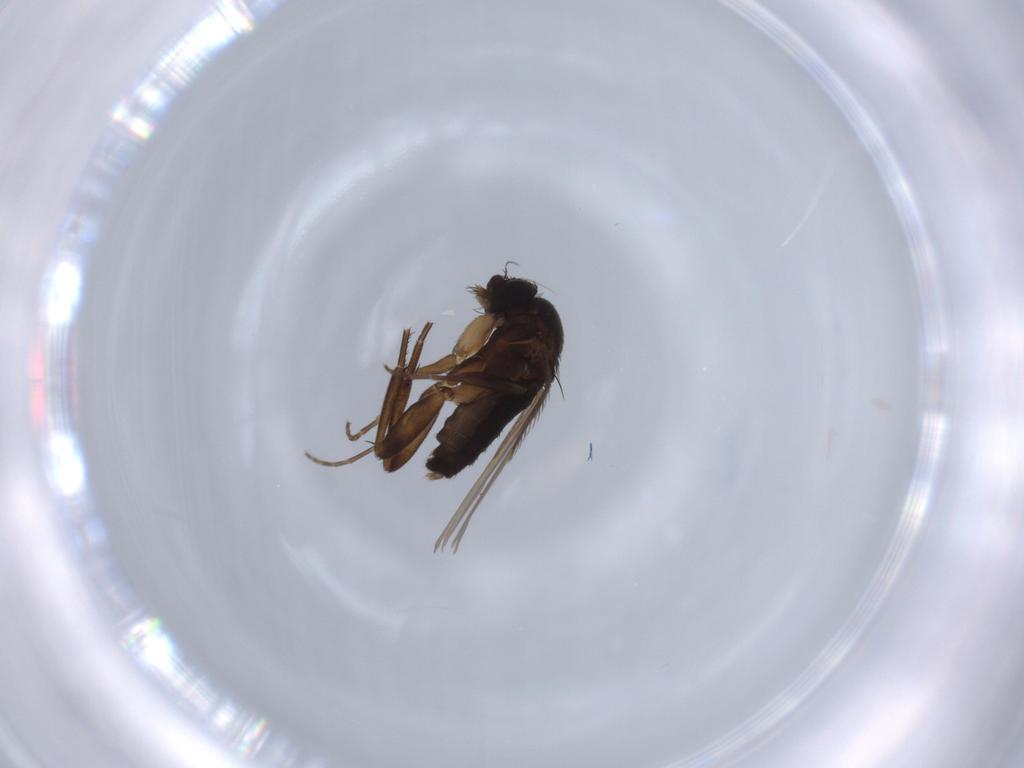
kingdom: Animalia
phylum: Arthropoda
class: Insecta
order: Diptera
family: Phoridae
